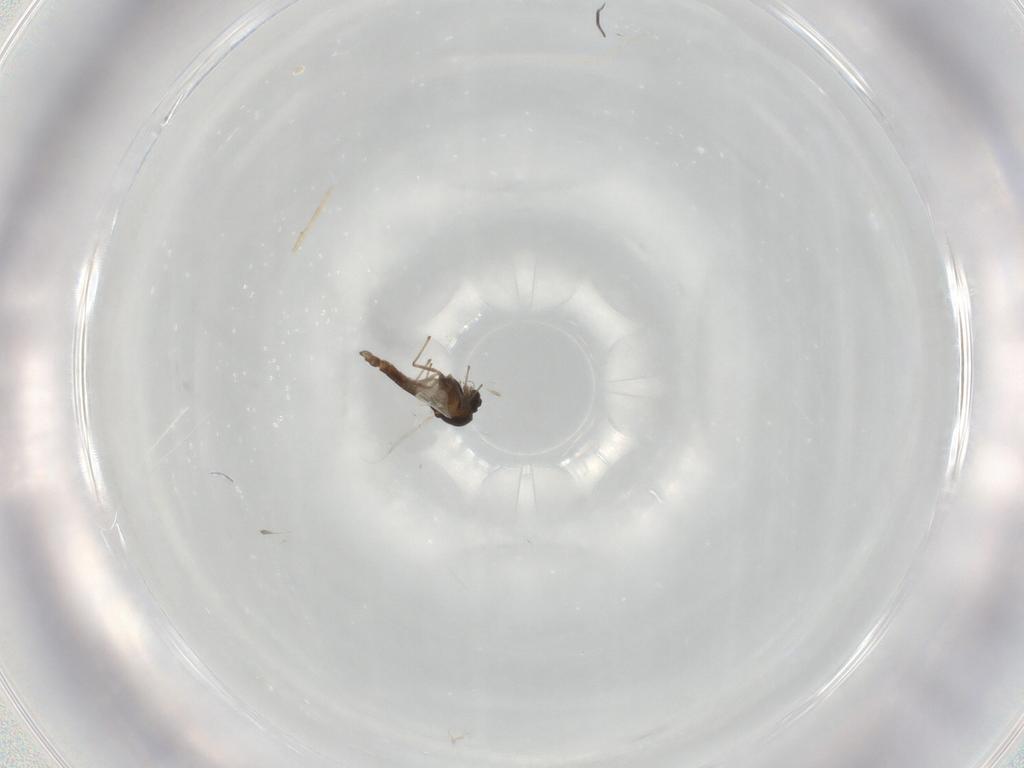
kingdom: Animalia
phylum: Arthropoda
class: Insecta
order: Diptera
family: Chironomidae
